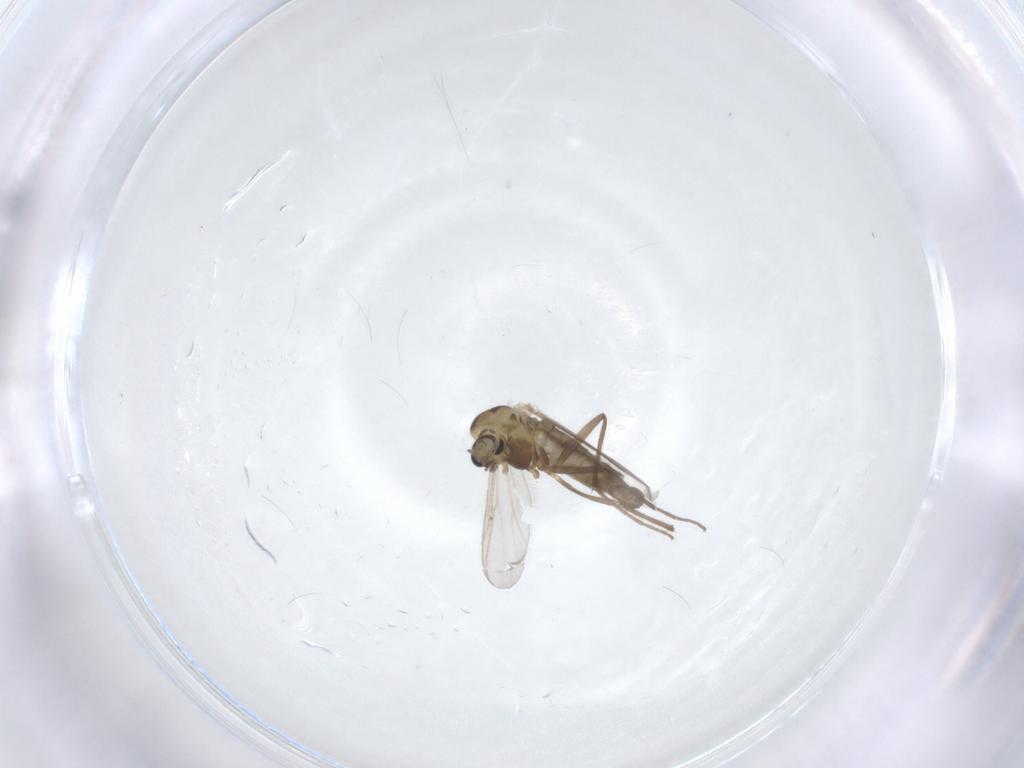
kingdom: Animalia
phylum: Arthropoda
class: Insecta
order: Diptera
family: Chironomidae
